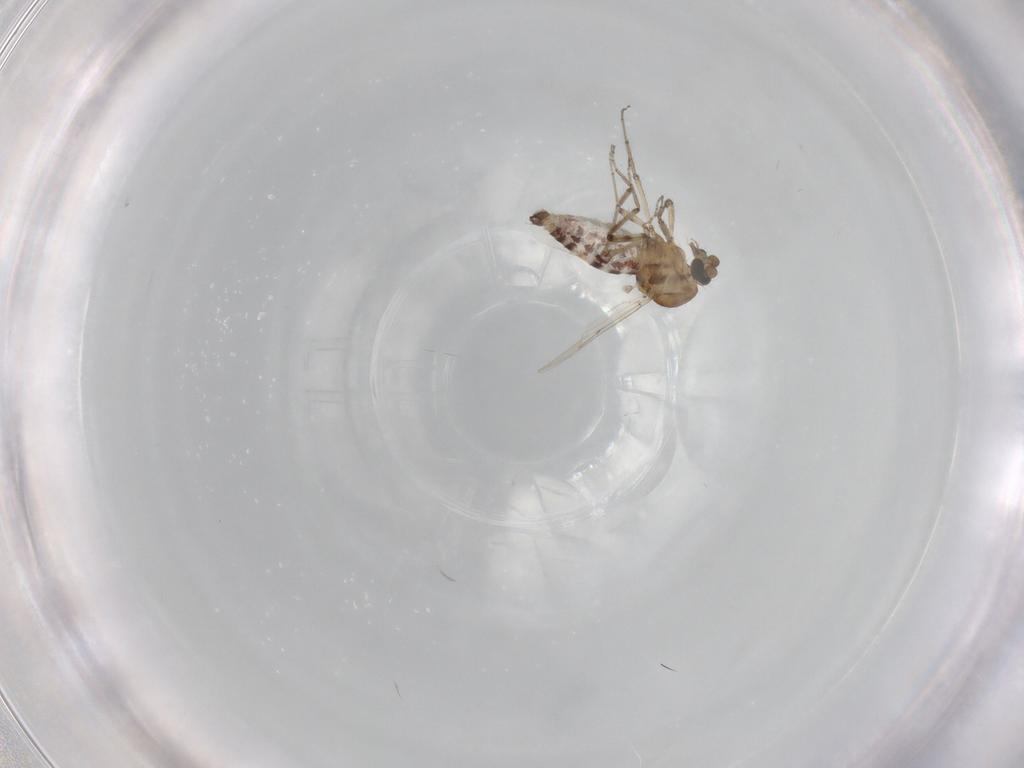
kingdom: Animalia
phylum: Arthropoda
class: Insecta
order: Diptera
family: Ceratopogonidae
